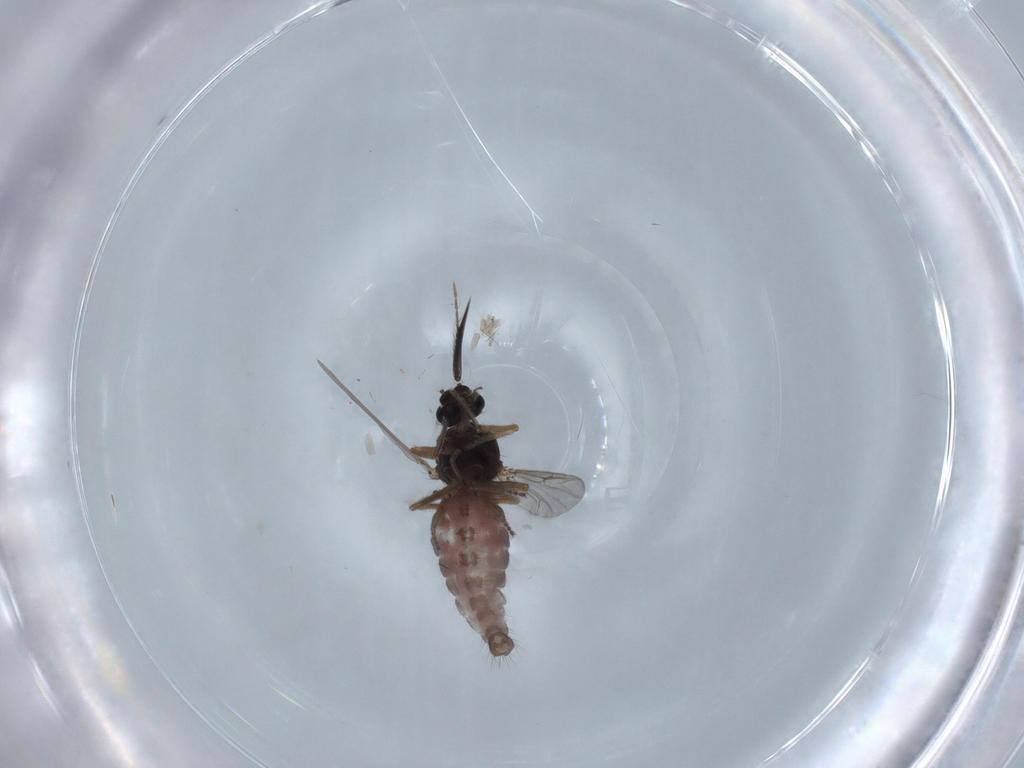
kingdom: Animalia
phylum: Arthropoda
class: Insecta
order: Diptera
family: Ceratopogonidae
